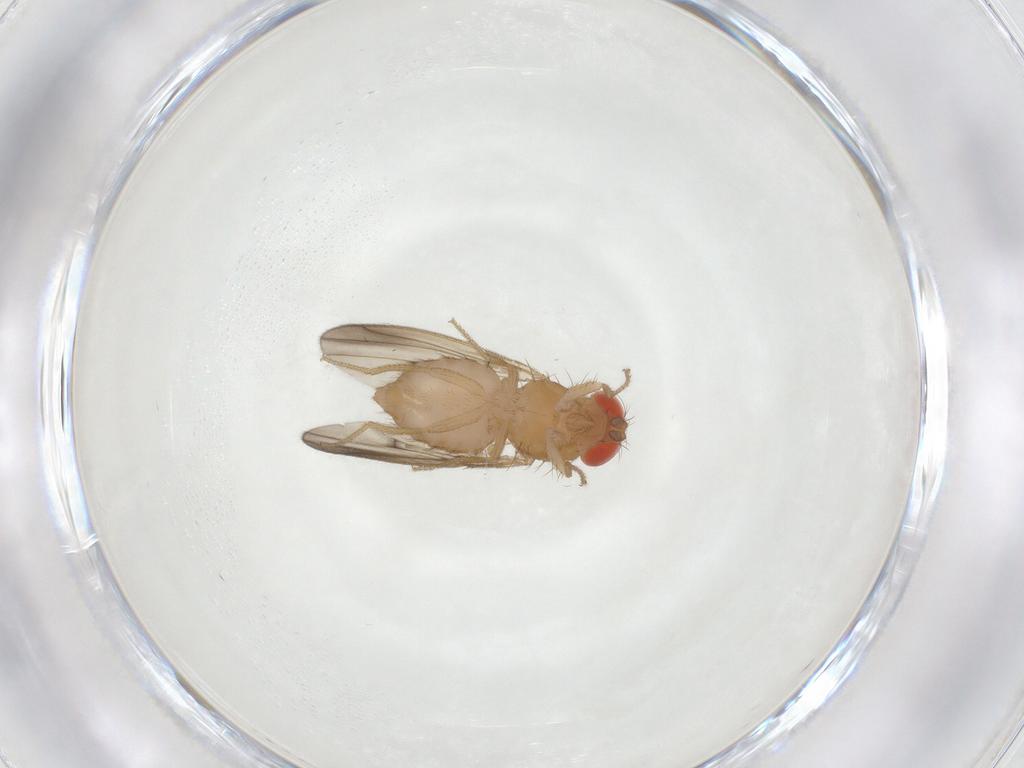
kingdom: Animalia
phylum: Arthropoda
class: Insecta
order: Diptera
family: Drosophilidae
